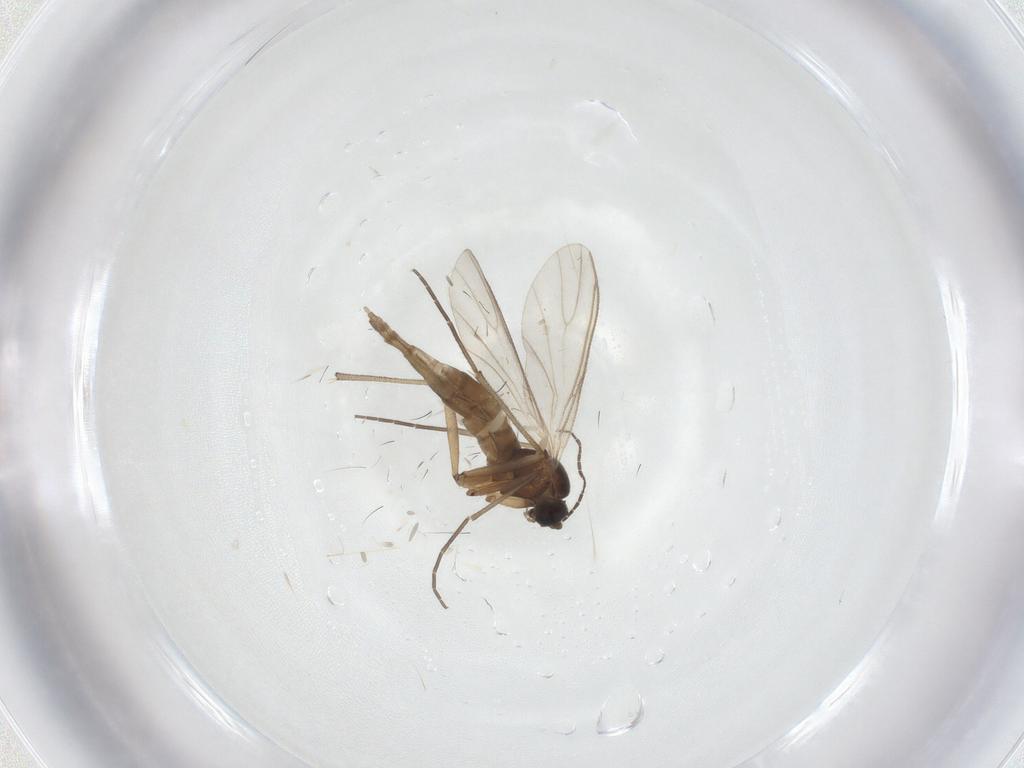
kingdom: Animalia
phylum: Arthropoda
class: Insecta
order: Diptera
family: Sciaridae
